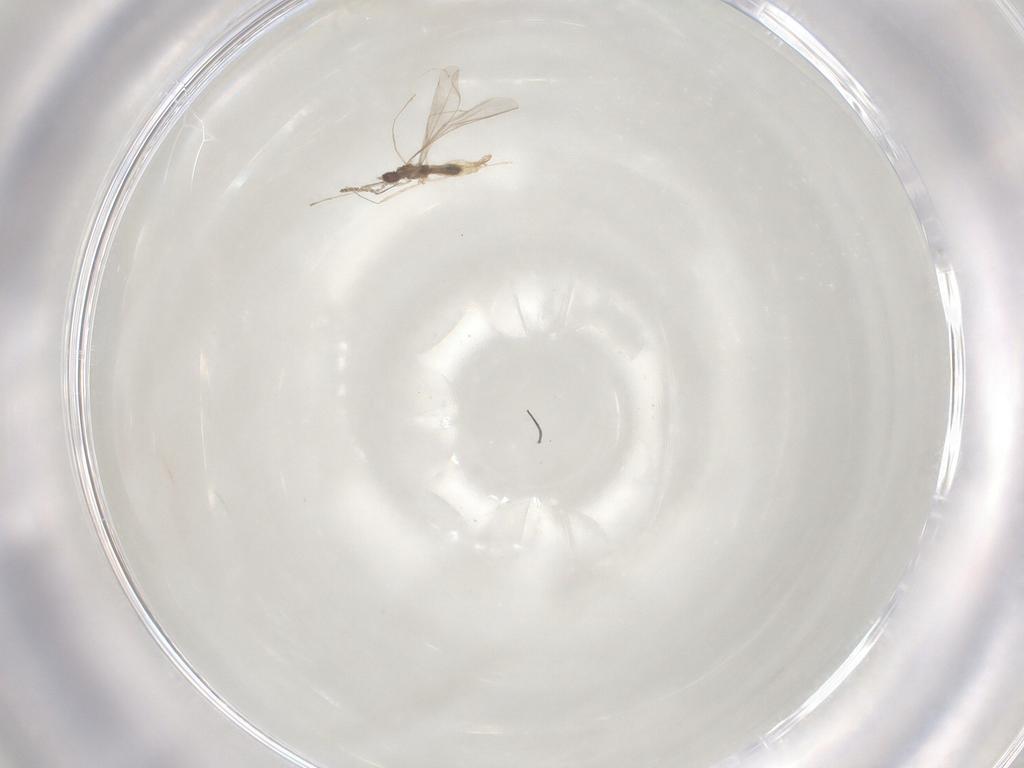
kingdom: Animalia
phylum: Arthropoda
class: Insecta
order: Diptera
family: Cecidomyiidae
